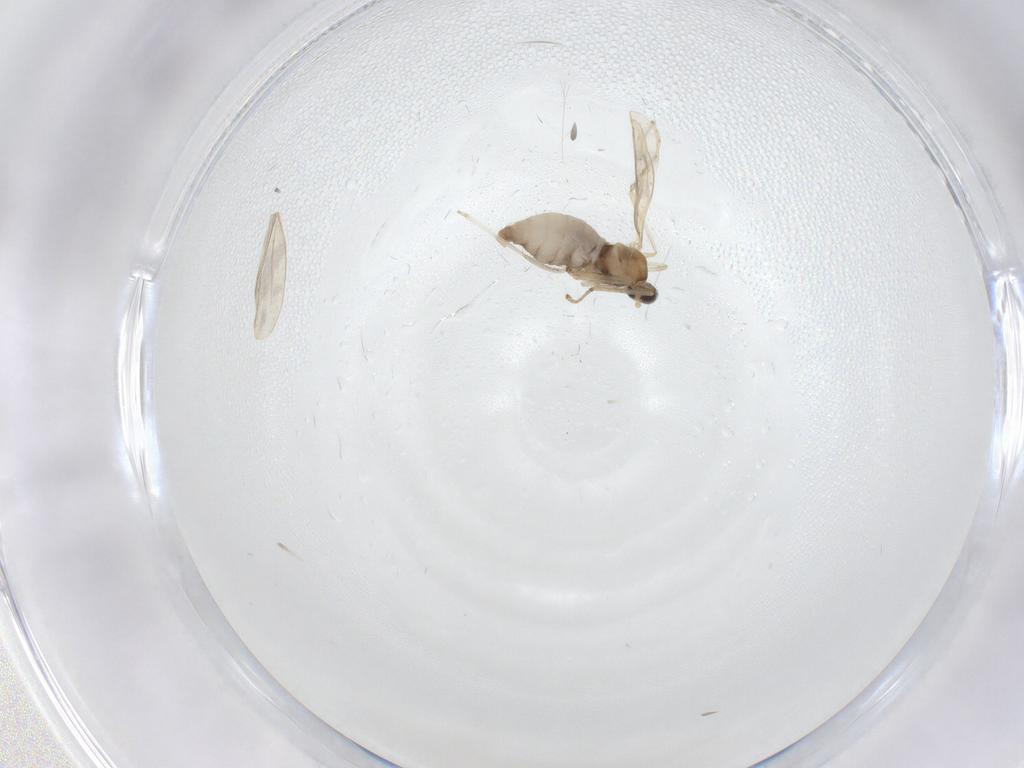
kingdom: Animalia
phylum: Arthropoda
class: Insecta
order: Diptera
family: Cecidomyiidae
